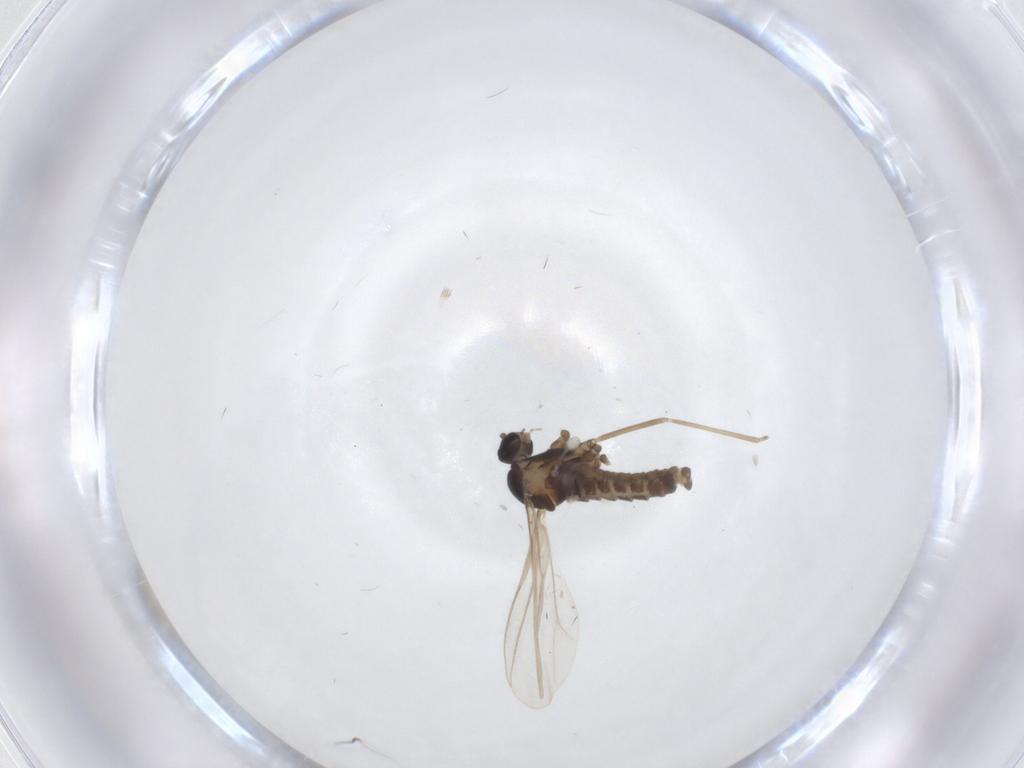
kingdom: Animalia
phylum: Arthropoda
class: Insecta
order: Diptera
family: Cecidomyiidae
